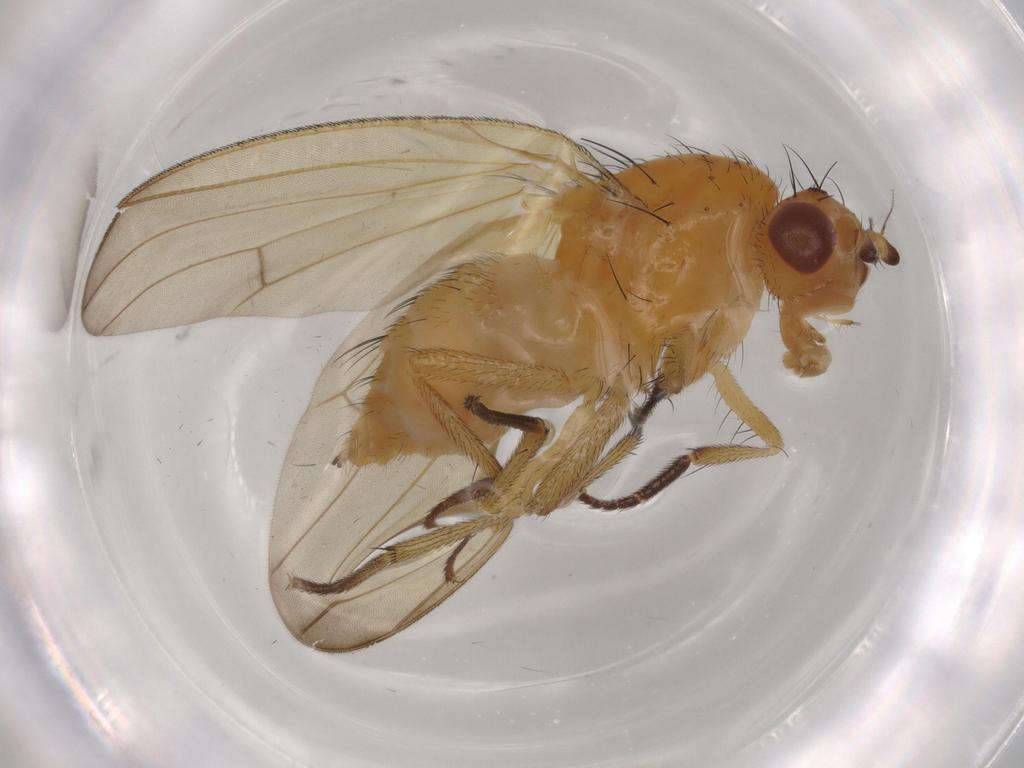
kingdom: Animalia
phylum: Arthropoda
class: Insecta
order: Diptera
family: Lauxaniidae
